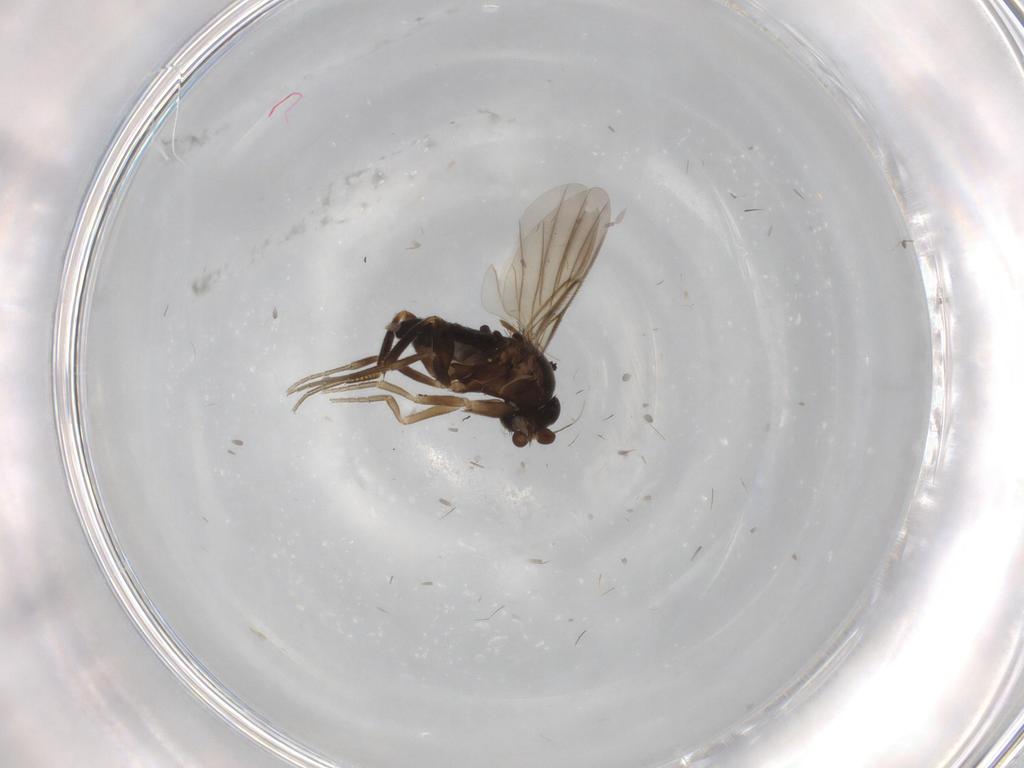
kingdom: Animalia
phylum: Arthropoda
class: Insecta
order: Diptera
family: Phoridae
